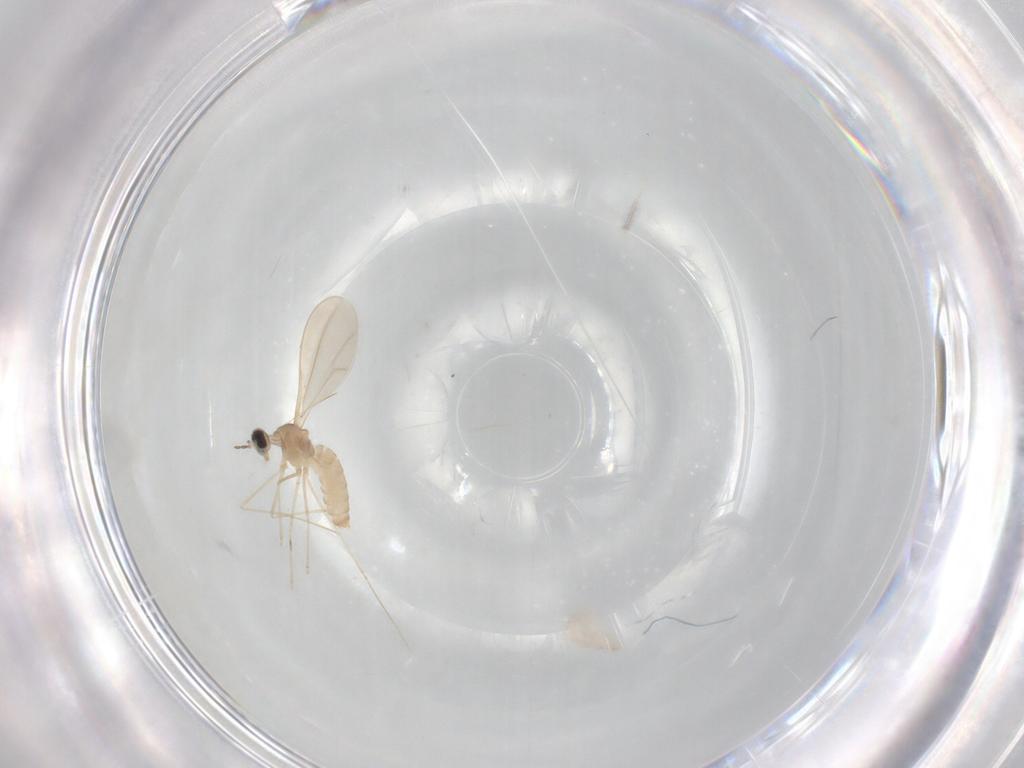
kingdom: Animalia
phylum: Arthropoda
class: Insecta
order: Diptera
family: Cecidomyiidae
